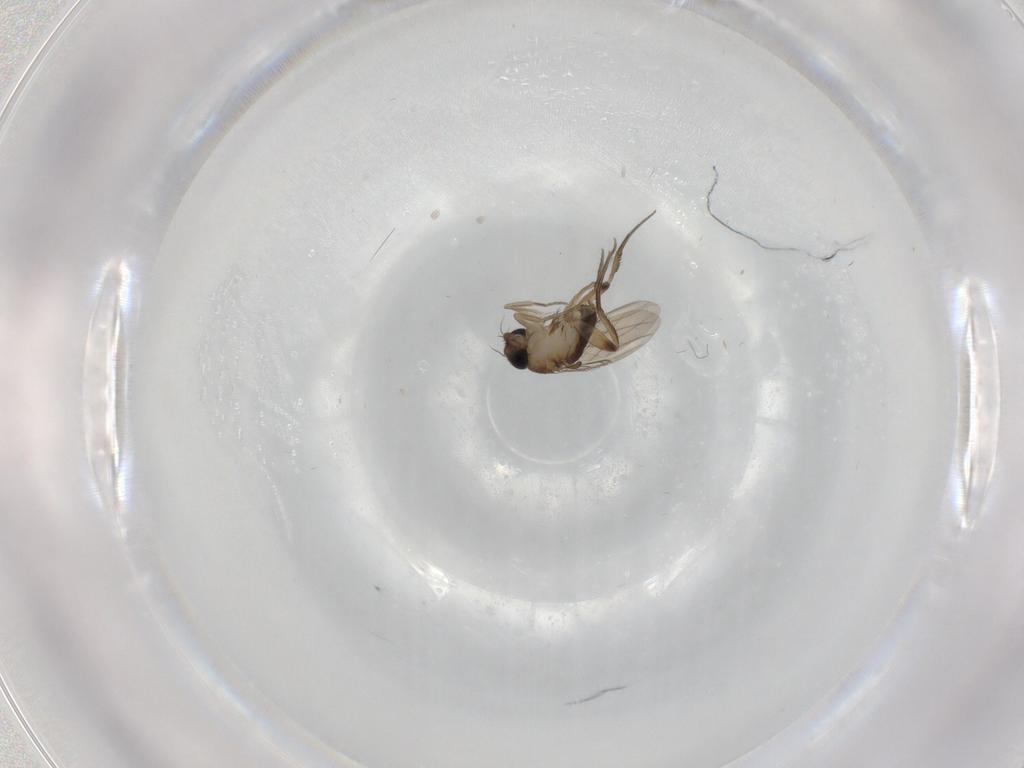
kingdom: Animalia
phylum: Arthropoda
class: Insecta
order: Diptera
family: Phoridae
